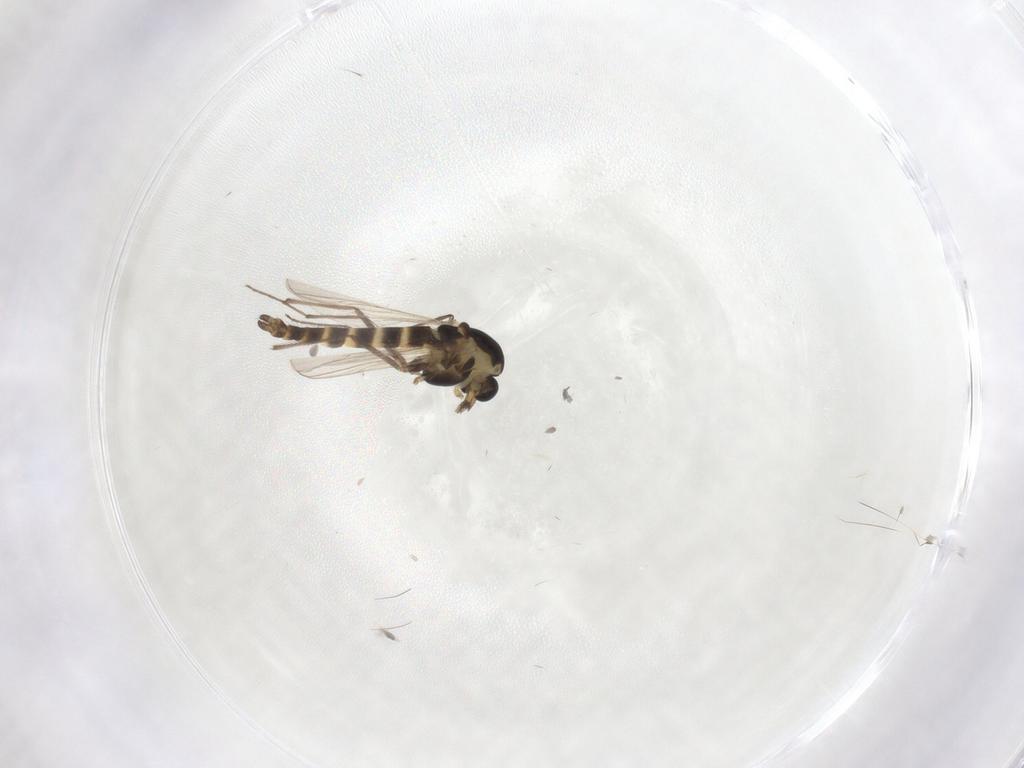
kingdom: Animalia
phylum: Arthropoda
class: Insecta
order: Diptera
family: Chironomidae
